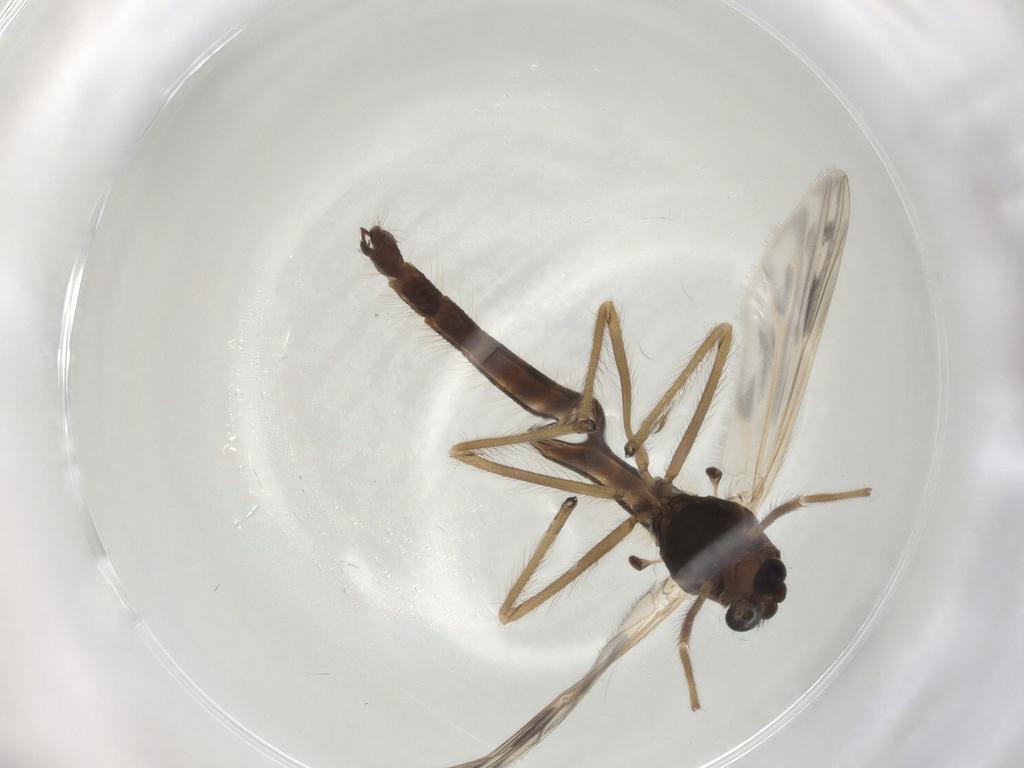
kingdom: Animalia
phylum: Arthropoda
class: Insecta
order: Diptera
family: Chironomidae
